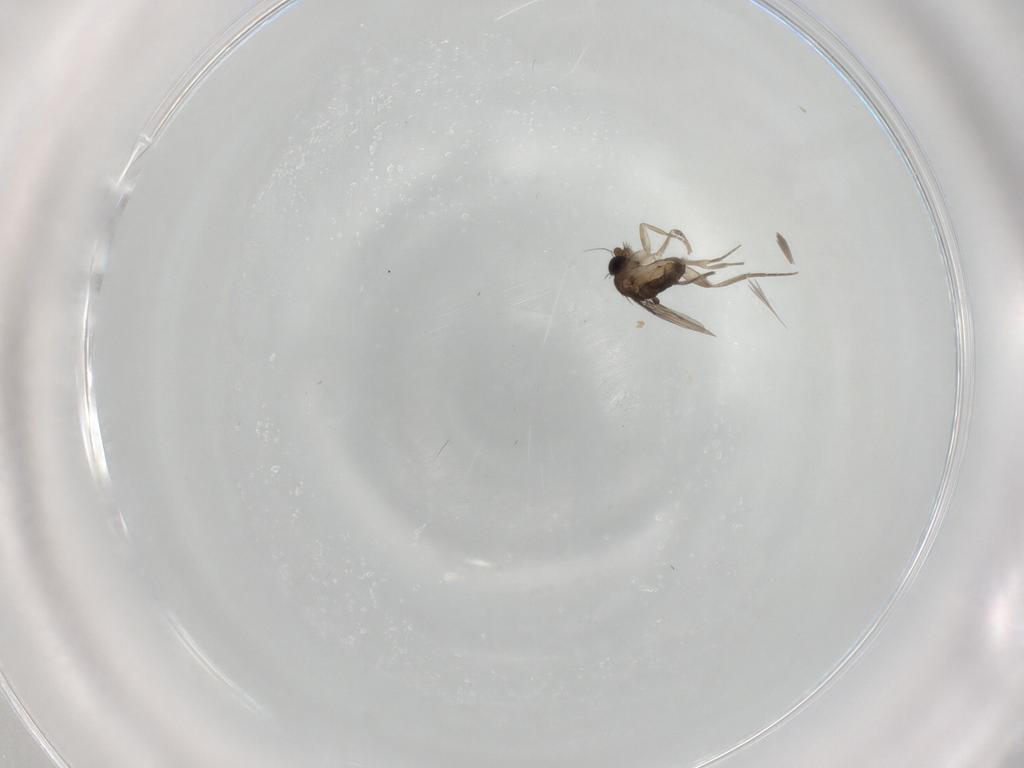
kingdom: Animalia
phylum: Arthropoda
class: Insecta
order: Diptera
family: Phoridae
